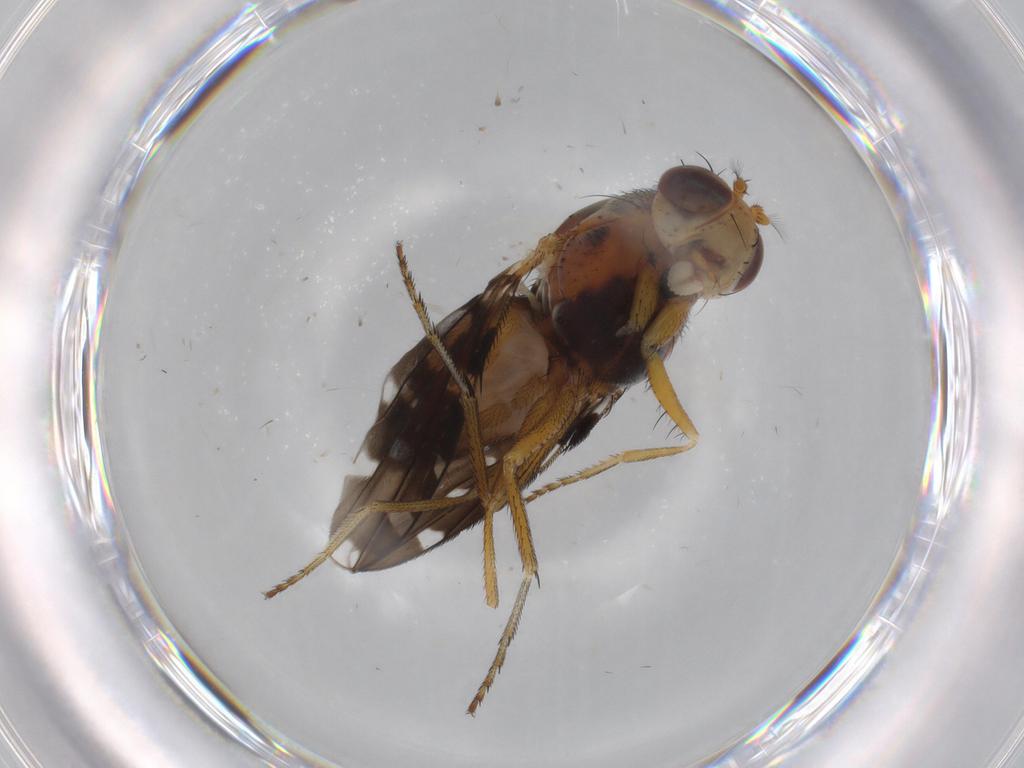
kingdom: Animalia
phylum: Arthropoda
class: Insecta
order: Diptera
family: Ephydridae
